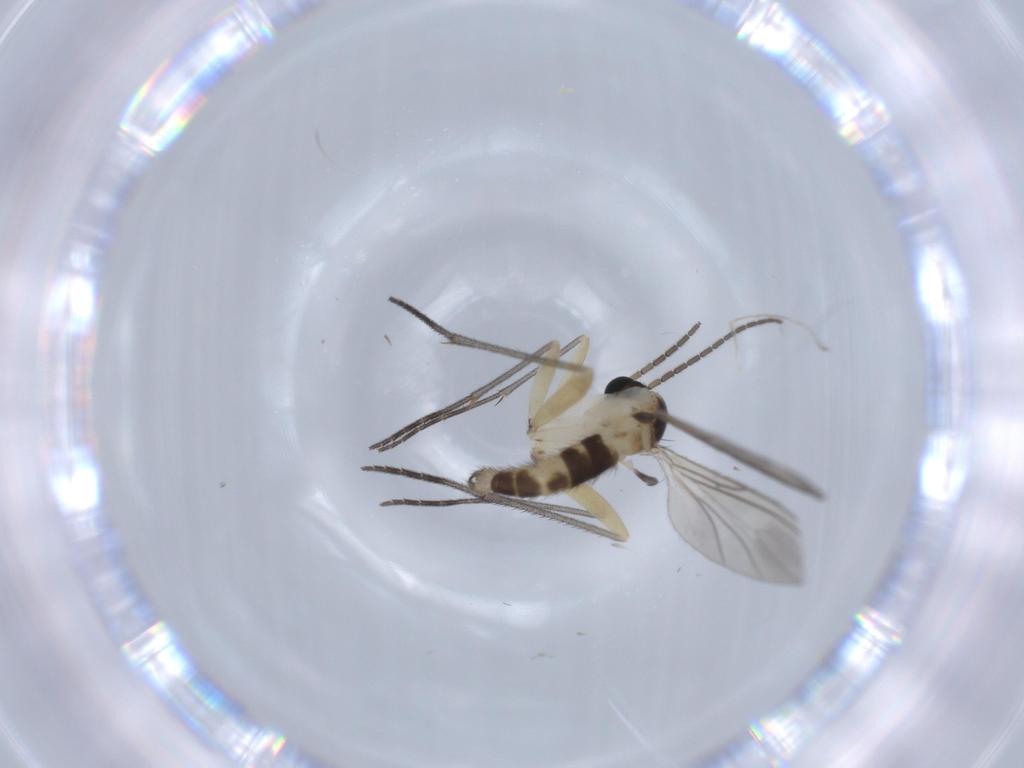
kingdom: Animalia
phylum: Arthropoda
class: Insecta
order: Diptera
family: Sciaridae
